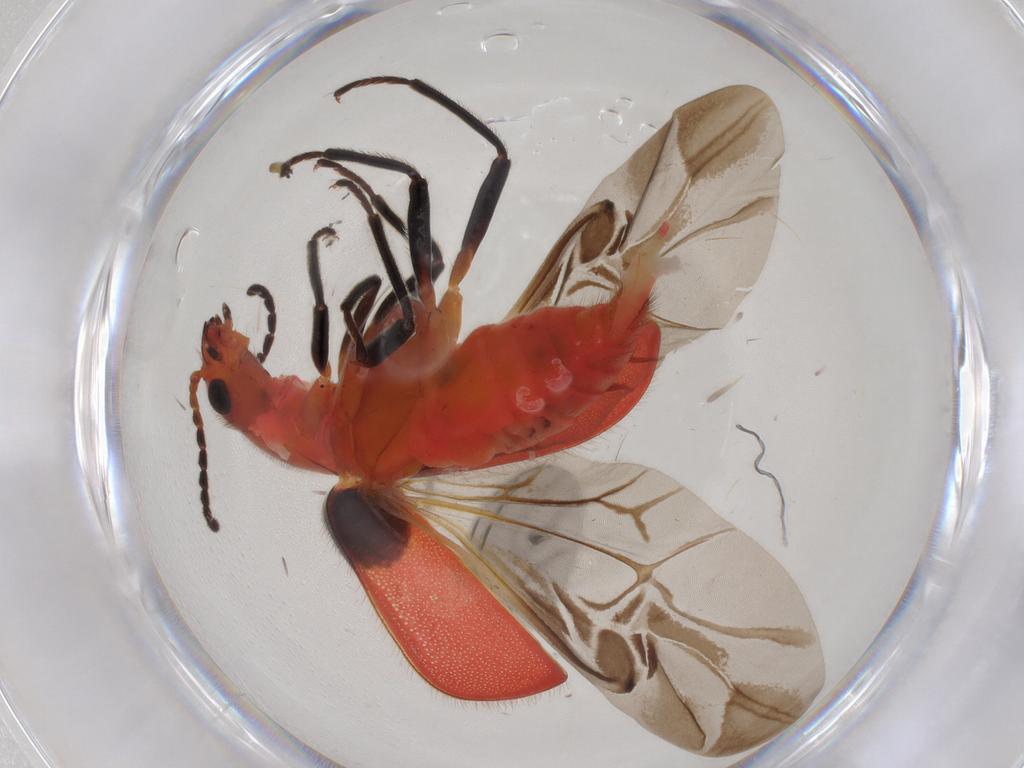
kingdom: Animalia
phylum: Arthropoda
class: Insecta
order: Coleoptera
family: Melyridae
